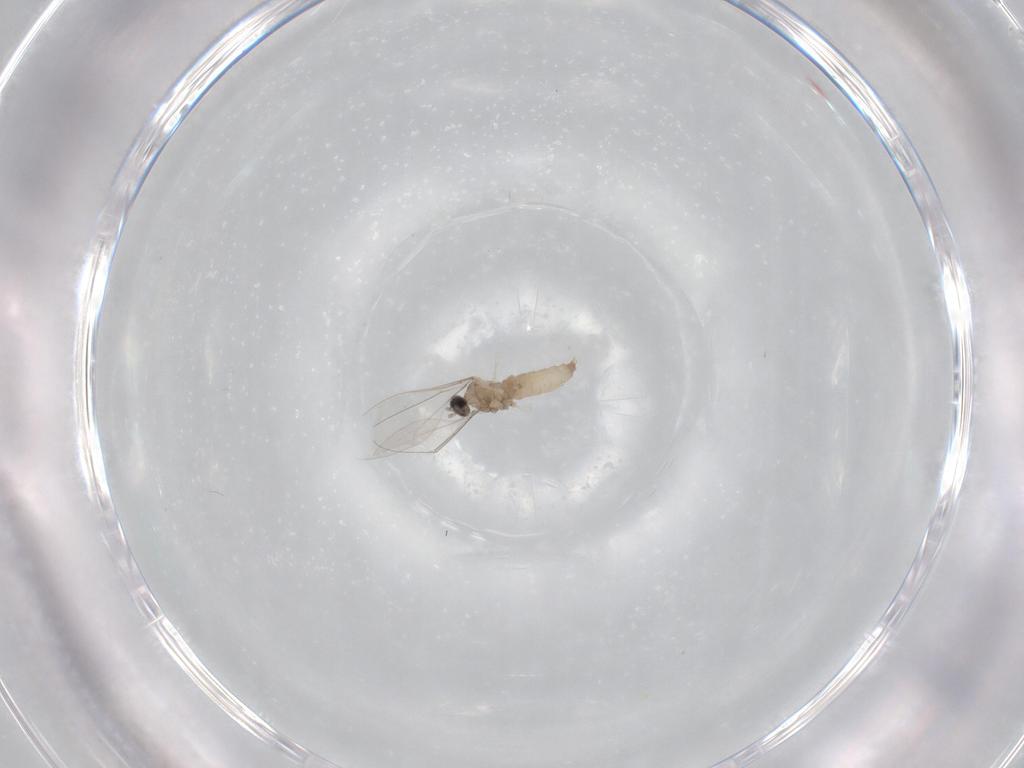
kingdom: Animalia
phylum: Arthropoda
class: Insecta
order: Diptera
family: Cecidomyiidae
